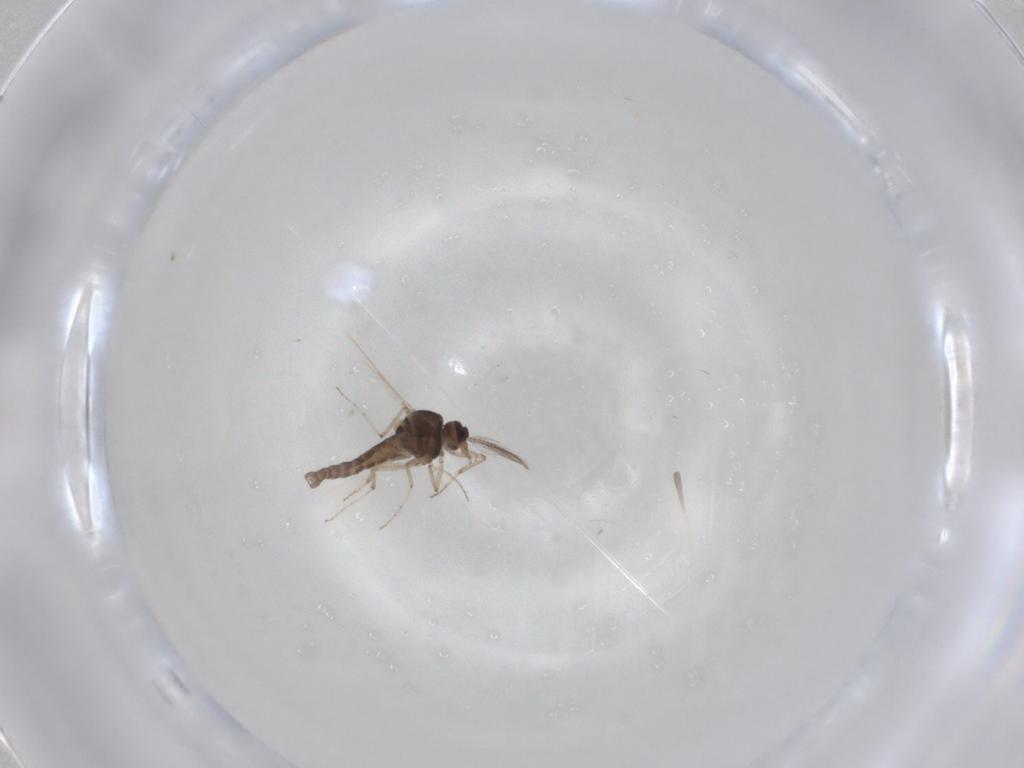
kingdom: Animalia
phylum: Arthropoda
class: Insecta
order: Diptera
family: Ceratopogonidae
